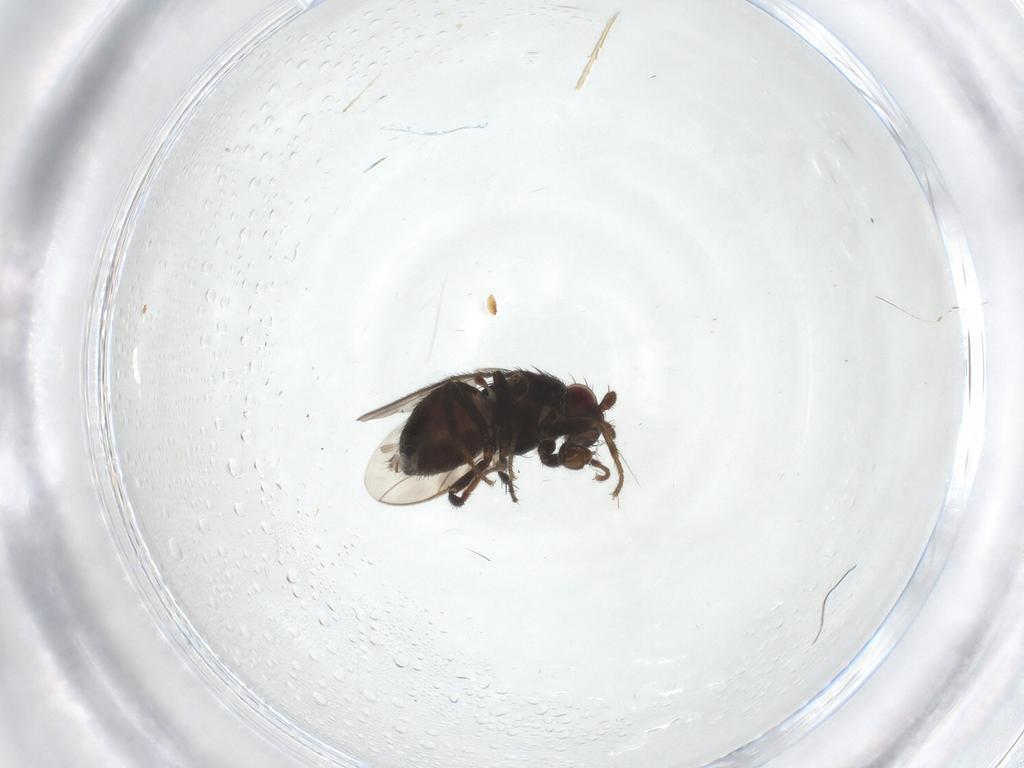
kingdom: Animalia
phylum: Arthropoda
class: Insecta
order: Diptera
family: Sphaeroceridae
